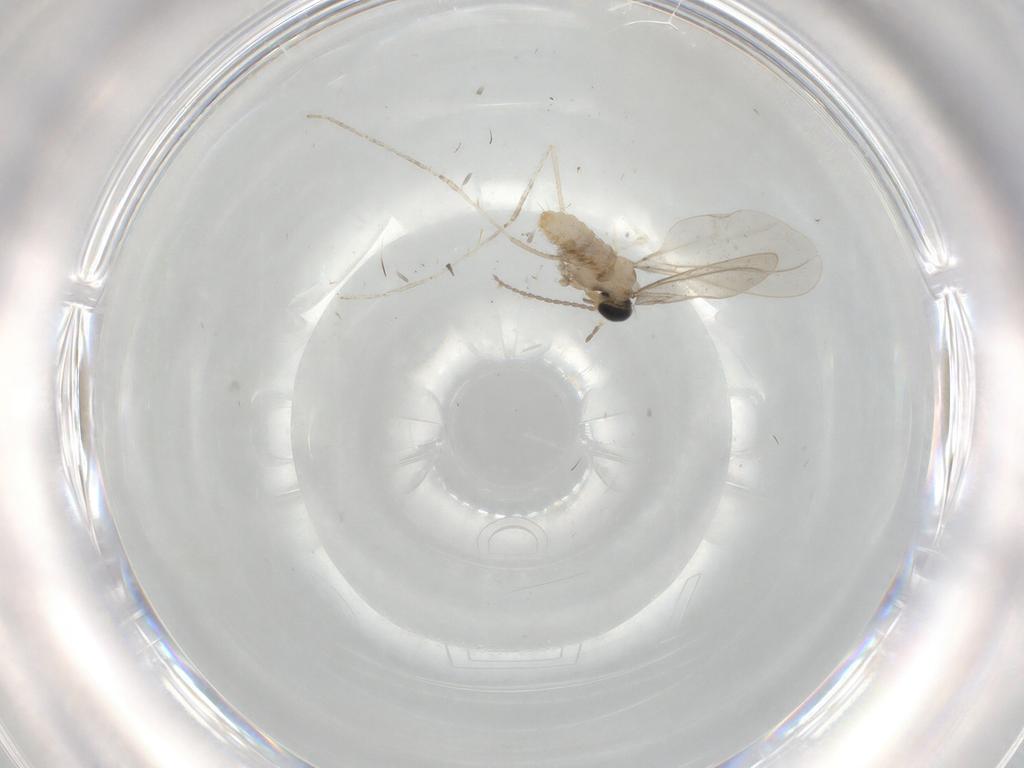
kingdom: Animalia
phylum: Arthropoda
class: Insecta
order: Diptera
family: Cecidomyiidae
